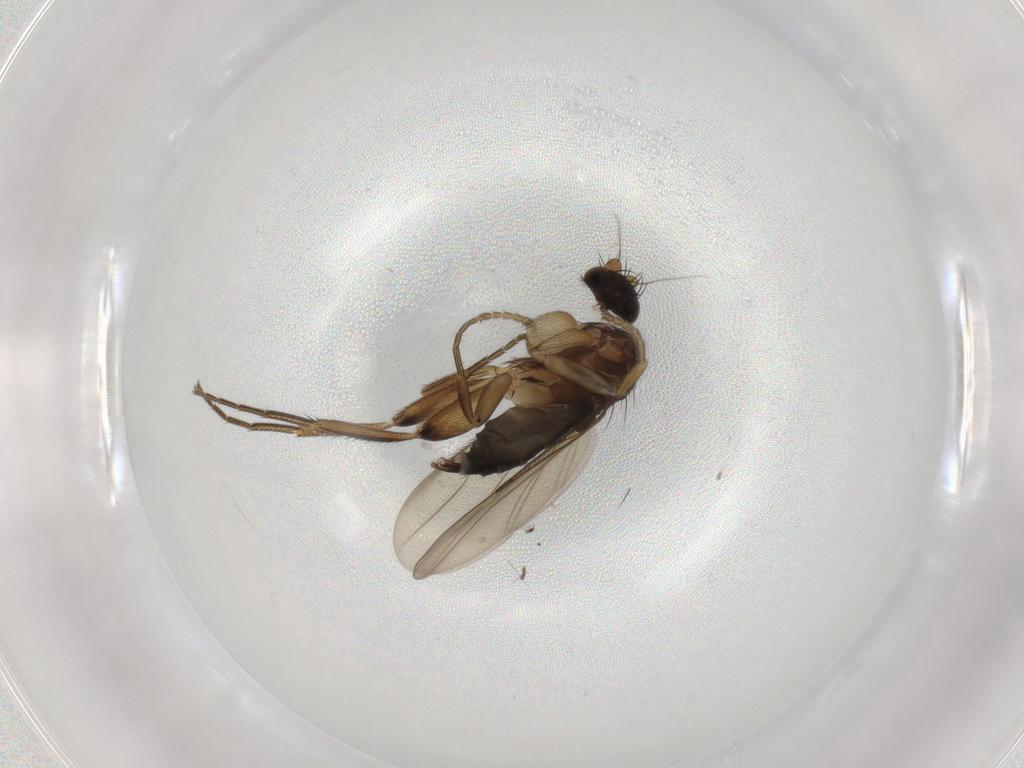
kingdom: Animalia
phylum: Arthropoda
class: Insecta
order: Diptera
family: Phoridae
